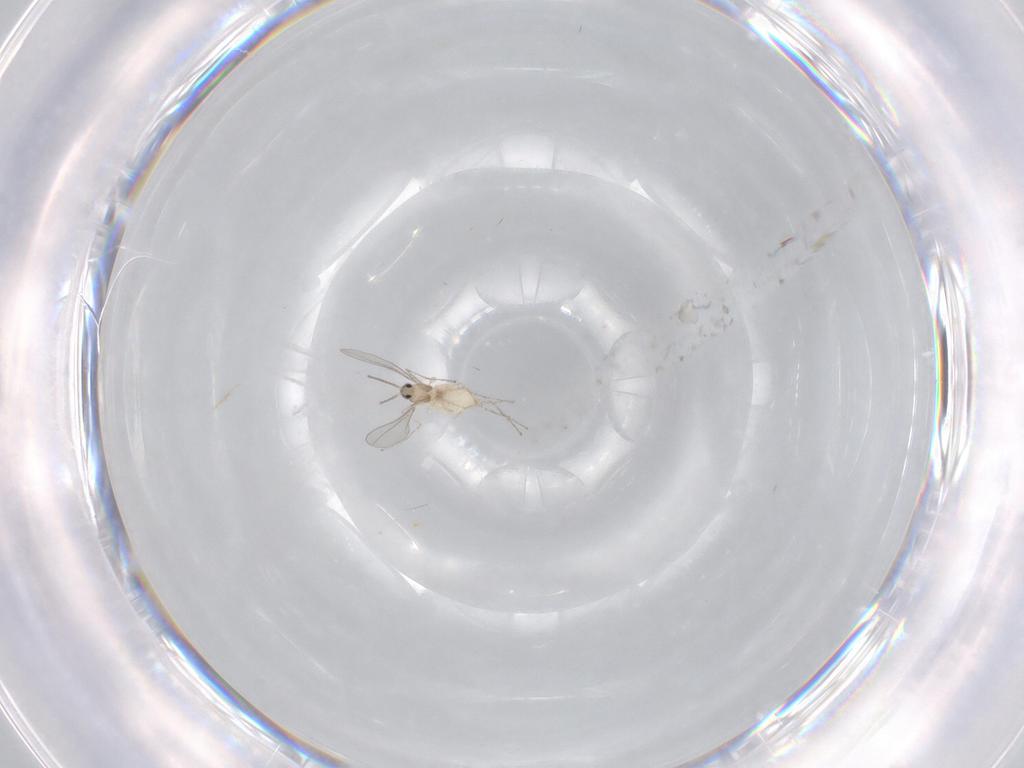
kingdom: Animalia
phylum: Arthropoda
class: Insecta
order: Diptera
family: Cecidomyiidae
